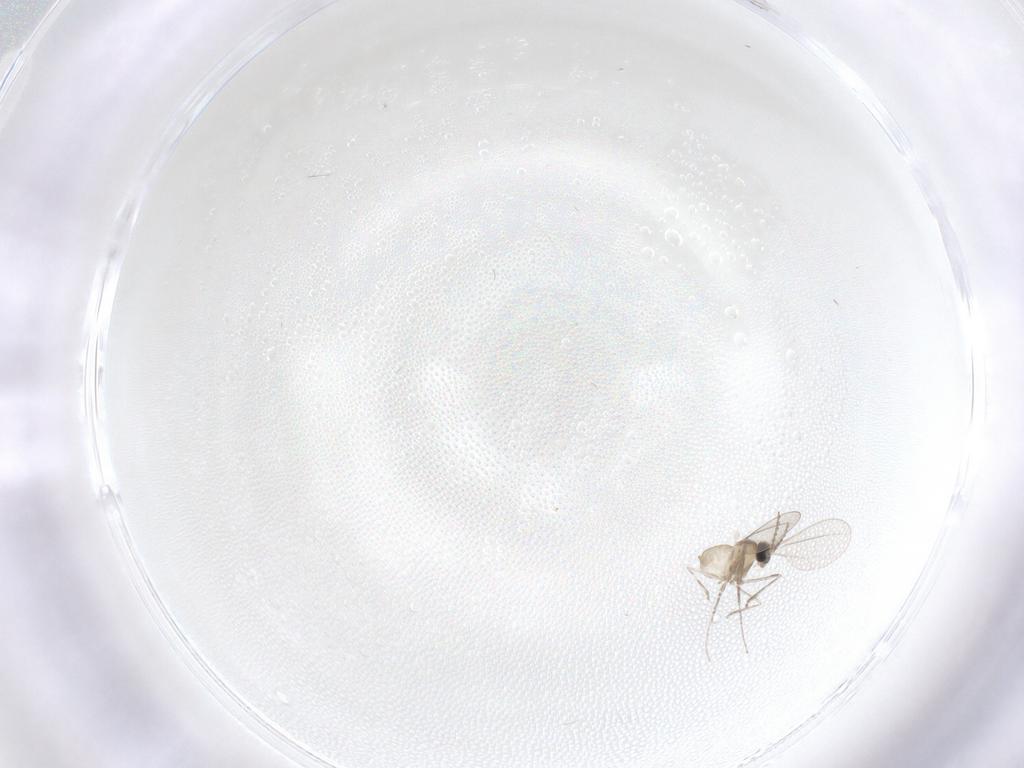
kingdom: Animalia
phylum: Arthropoda
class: Insecta
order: Diptera
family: Cecidomyiidae
